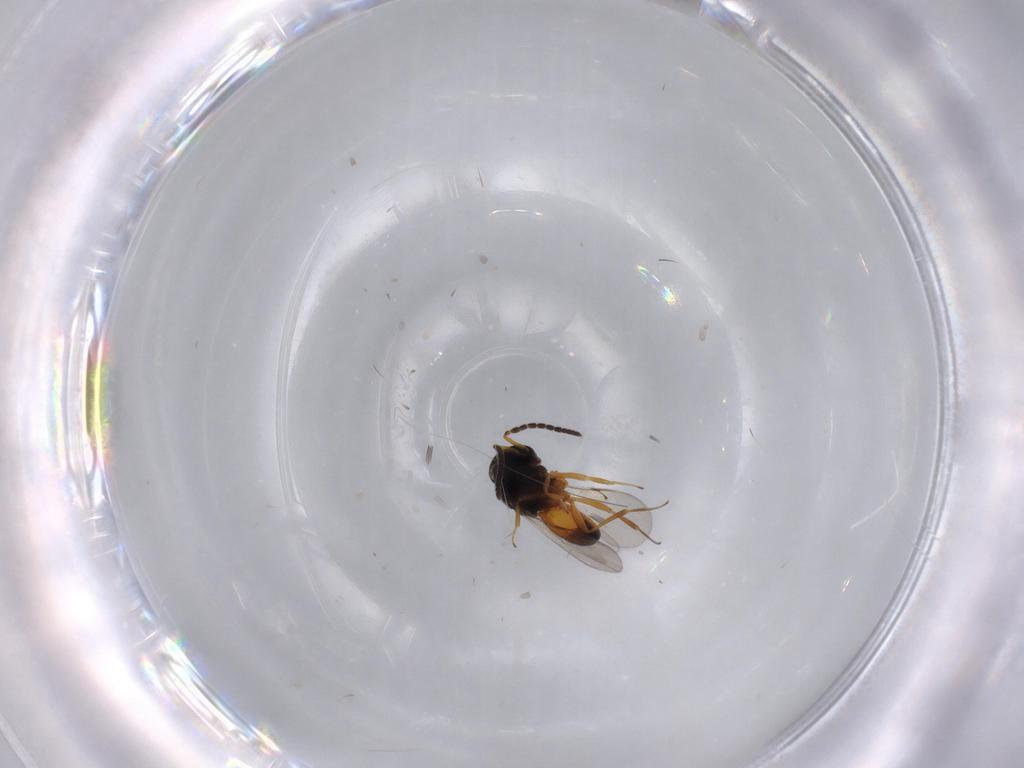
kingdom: Animalia
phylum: Arthropoda
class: Insecta
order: Hymenoptera
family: Scelionidae
